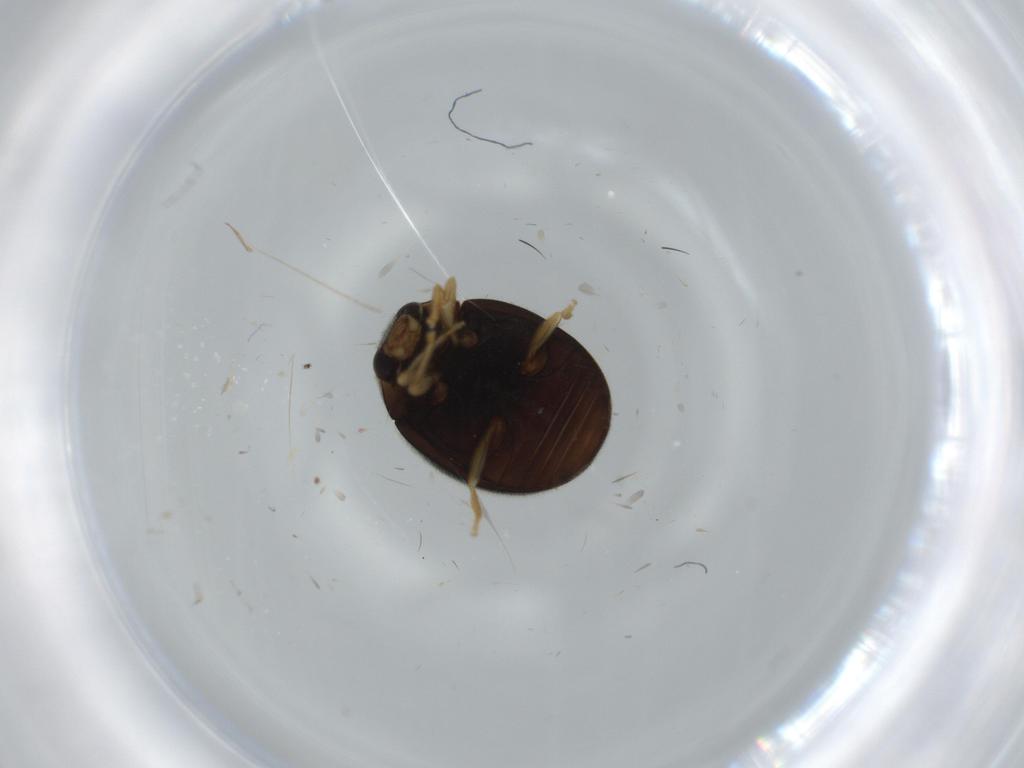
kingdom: Animalia
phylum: Arthropoda
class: Insecta
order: Coleoptera
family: Coccinellidae
